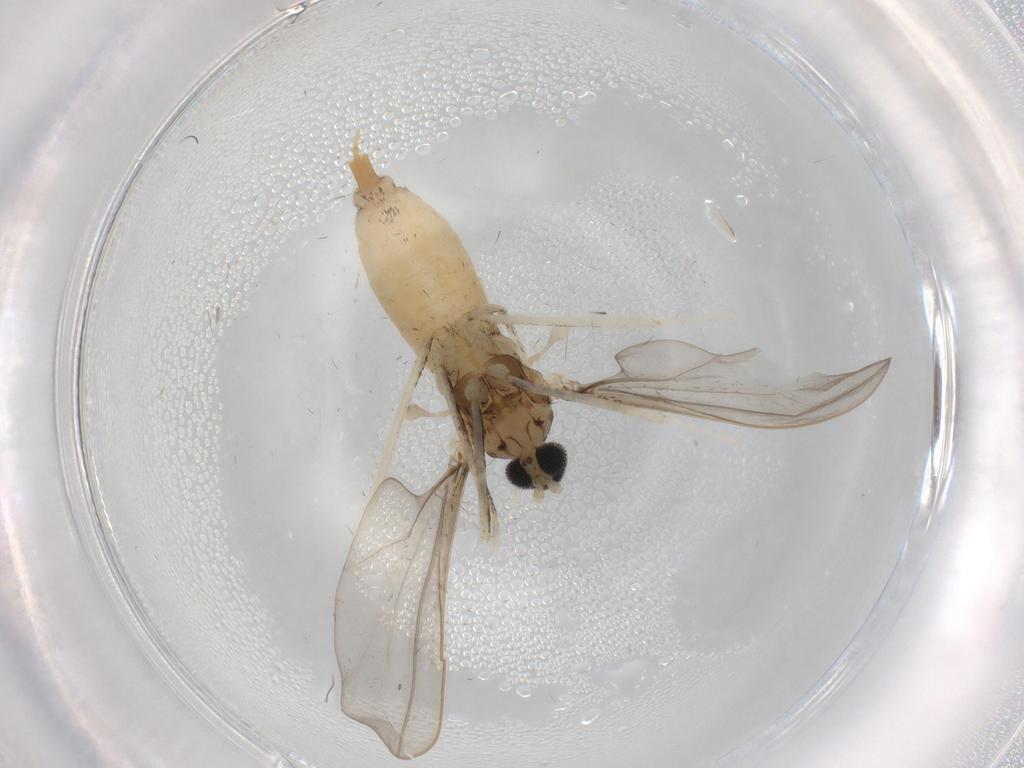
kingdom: Animalia
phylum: Arthropoda
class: Insecta
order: Diptera
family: Cecidomyiidae
